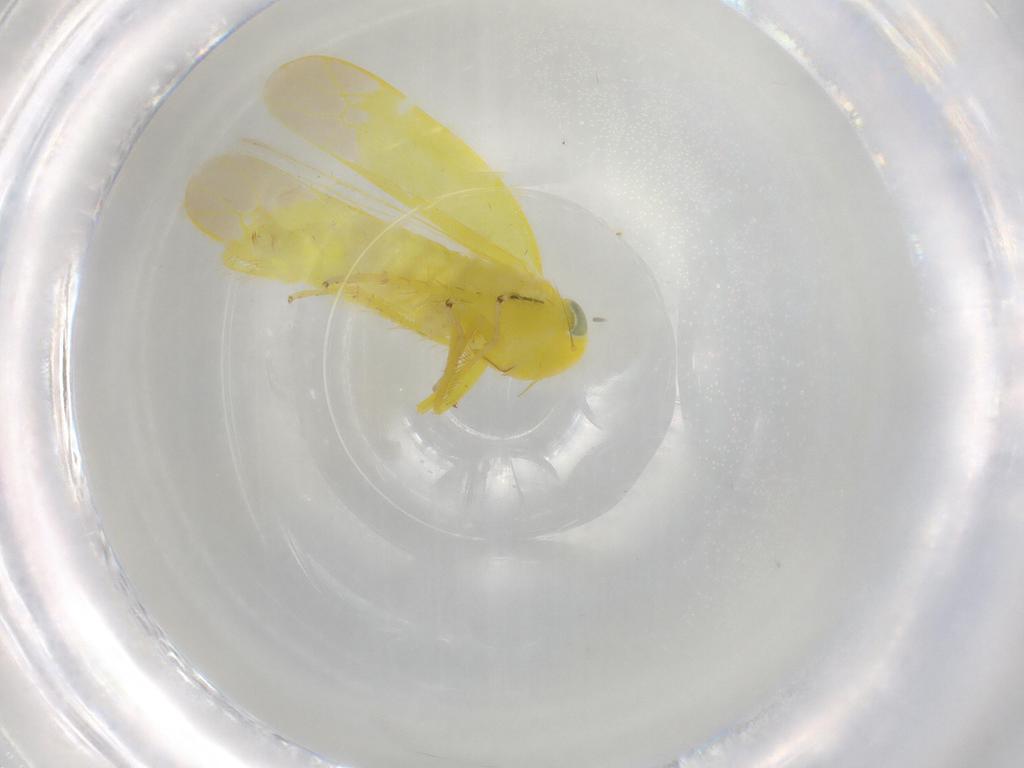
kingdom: Animalia
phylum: Arthropoda
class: Insecta
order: Hemiptera
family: Cicadellidae
